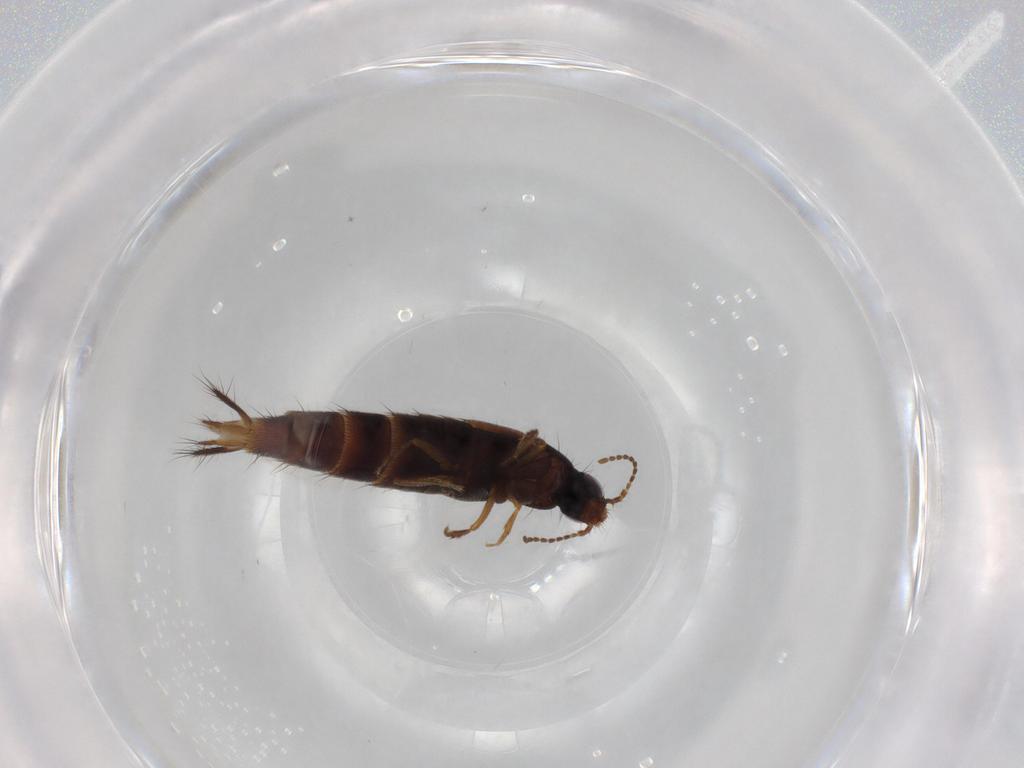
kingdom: Animalia
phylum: Arthropoda
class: Insecta
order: Coleoptera
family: Staphylinidae
